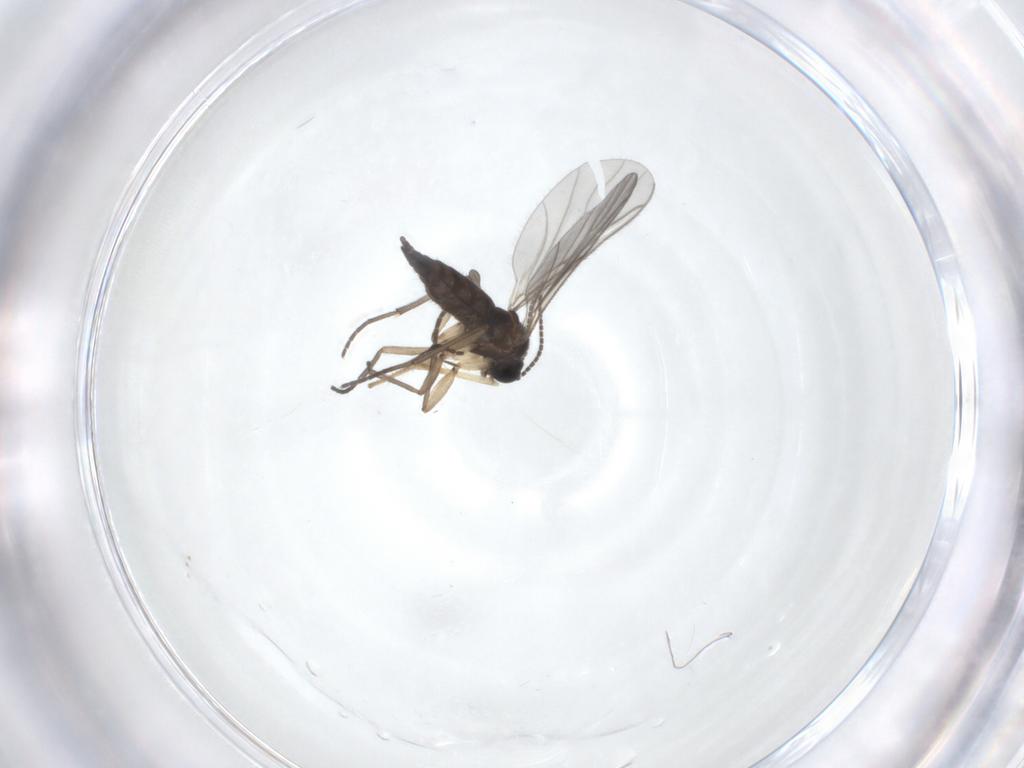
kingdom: Animalia
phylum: Arthropoda
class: Insecta
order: Diptera
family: Sciaridae
